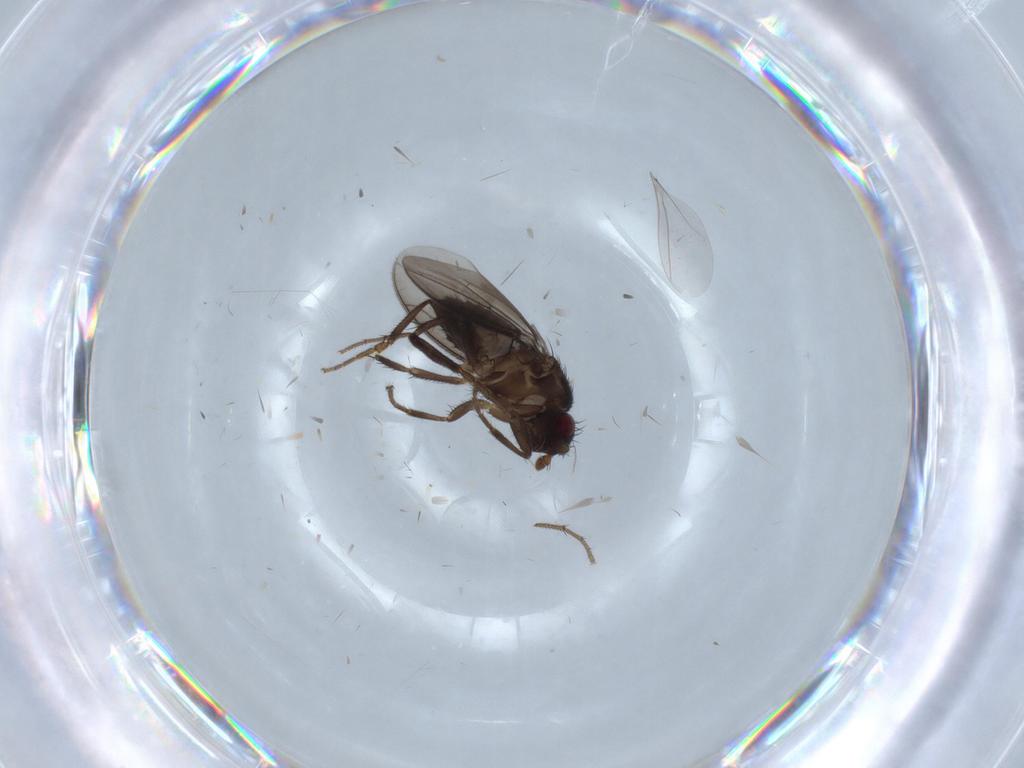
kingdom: Animalia
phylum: Arthropoda
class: Insecta
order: Diptera
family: Sphaeroceridae
